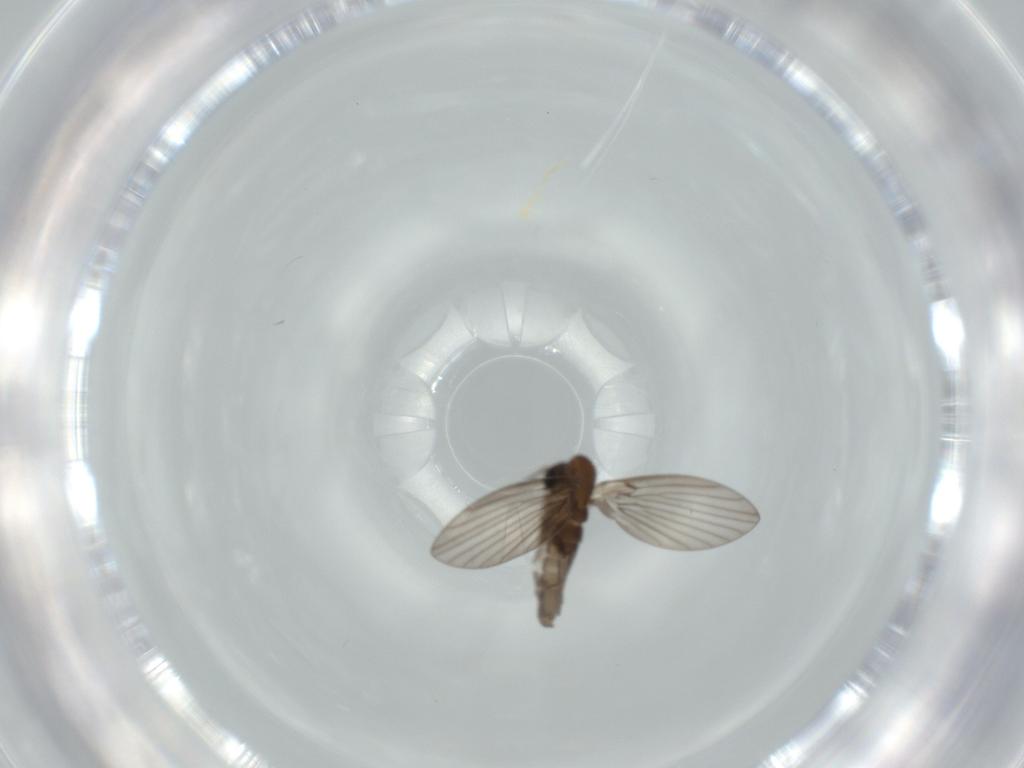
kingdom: Animalia
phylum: Arthropoda
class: Insecta
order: Diptera
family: Psychodidae
